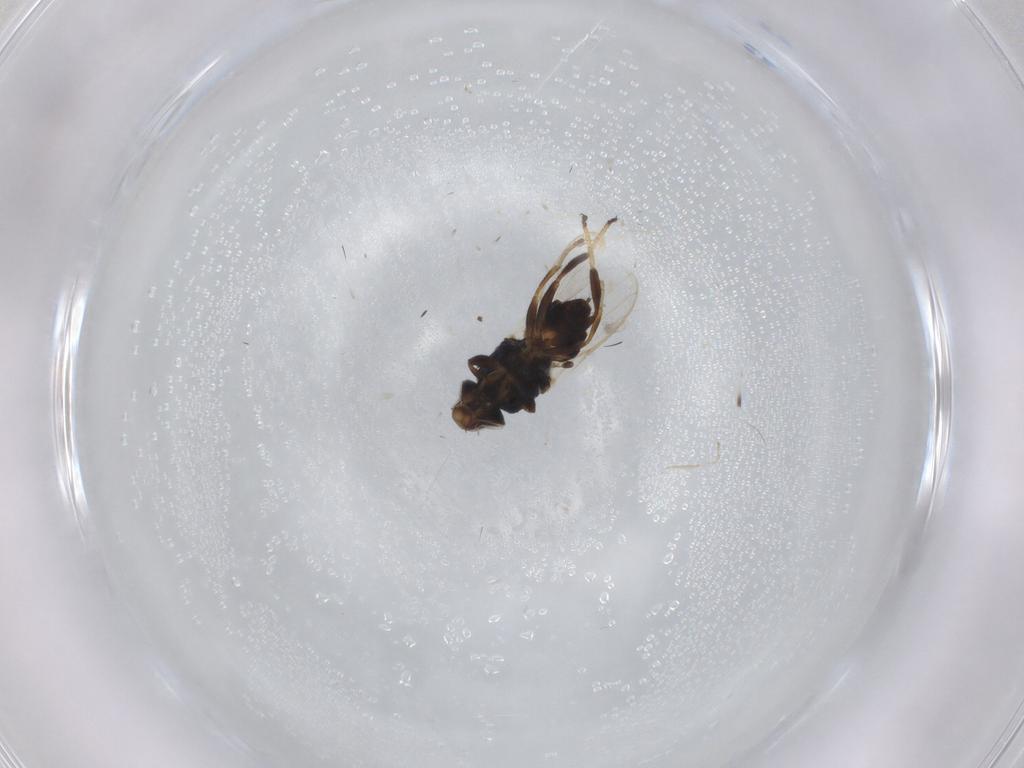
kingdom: Animalia
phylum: Arthropoda
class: Insecta
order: Diptera
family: Chloropidae
